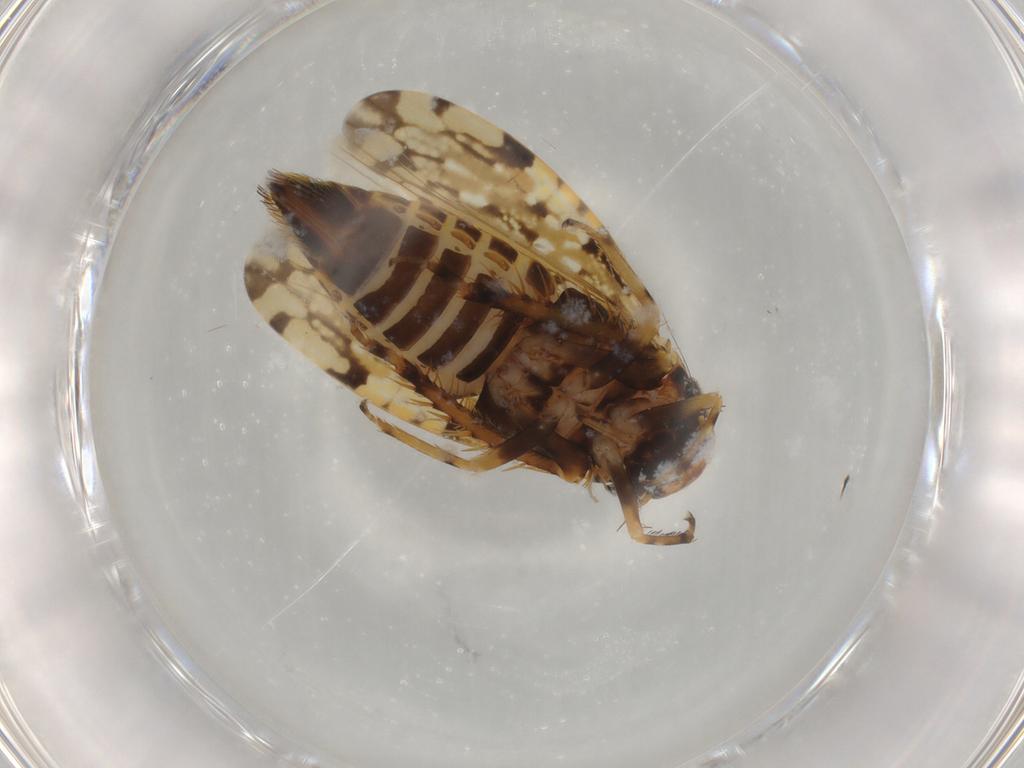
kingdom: Animalia
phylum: Arthropoda
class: Insecta
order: Hemiptera
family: Cicadellidae
